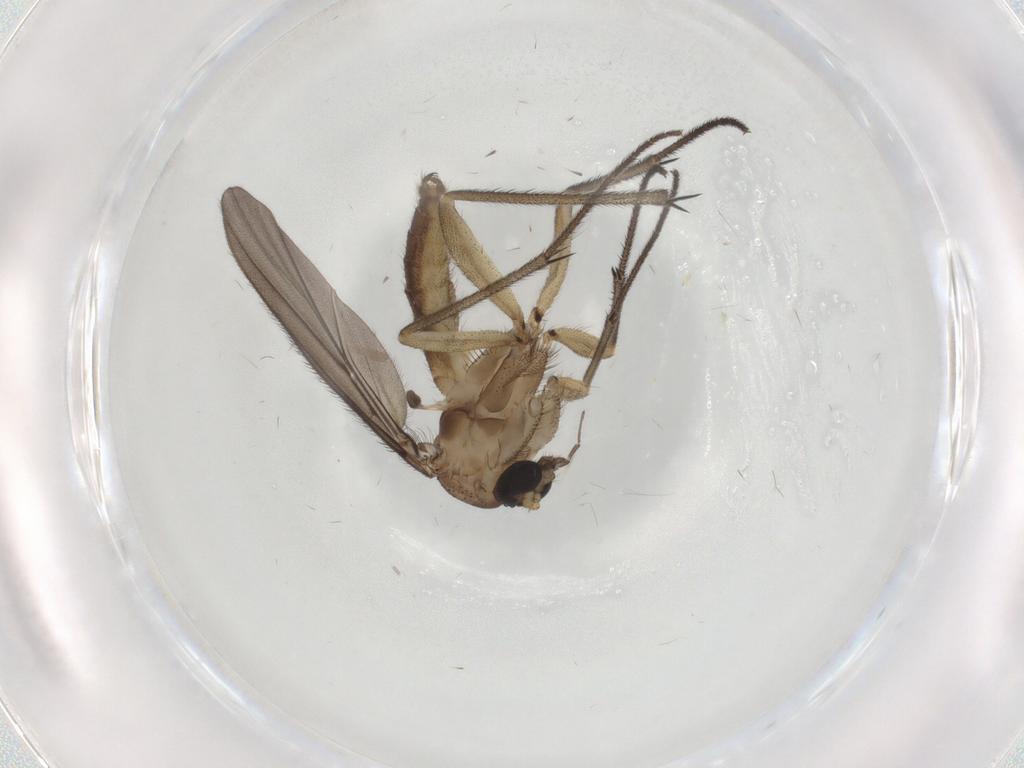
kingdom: Animalia
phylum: Arthropoda
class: Insecta
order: Diptera
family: Diadocidiidae
